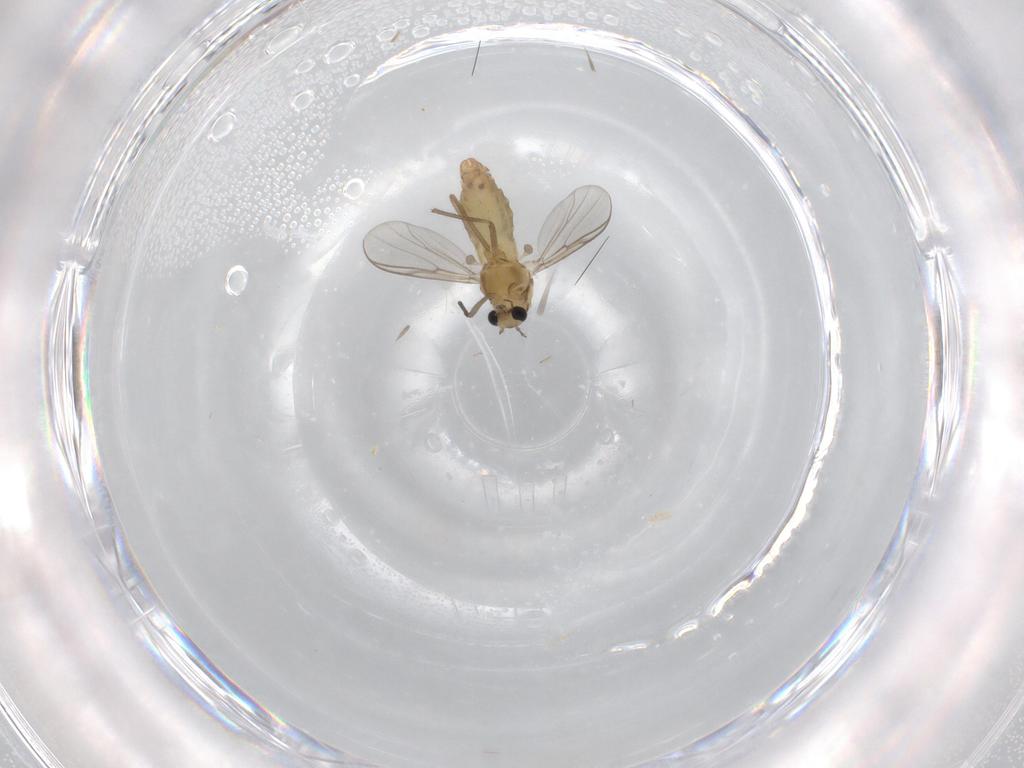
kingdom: Animalia
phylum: Arthropoda
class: Insecta
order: Diptera
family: Chironomidae
